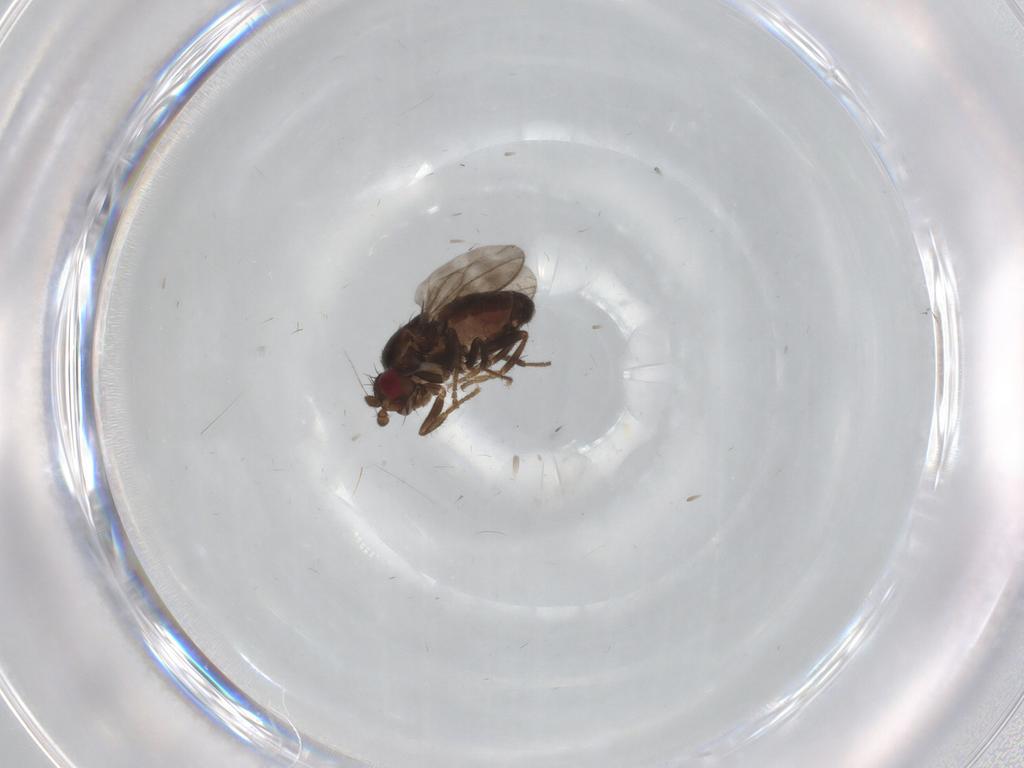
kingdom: Animalia
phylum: Arthropoda
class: Insecta
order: Diptera
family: Sphaeroceridae
